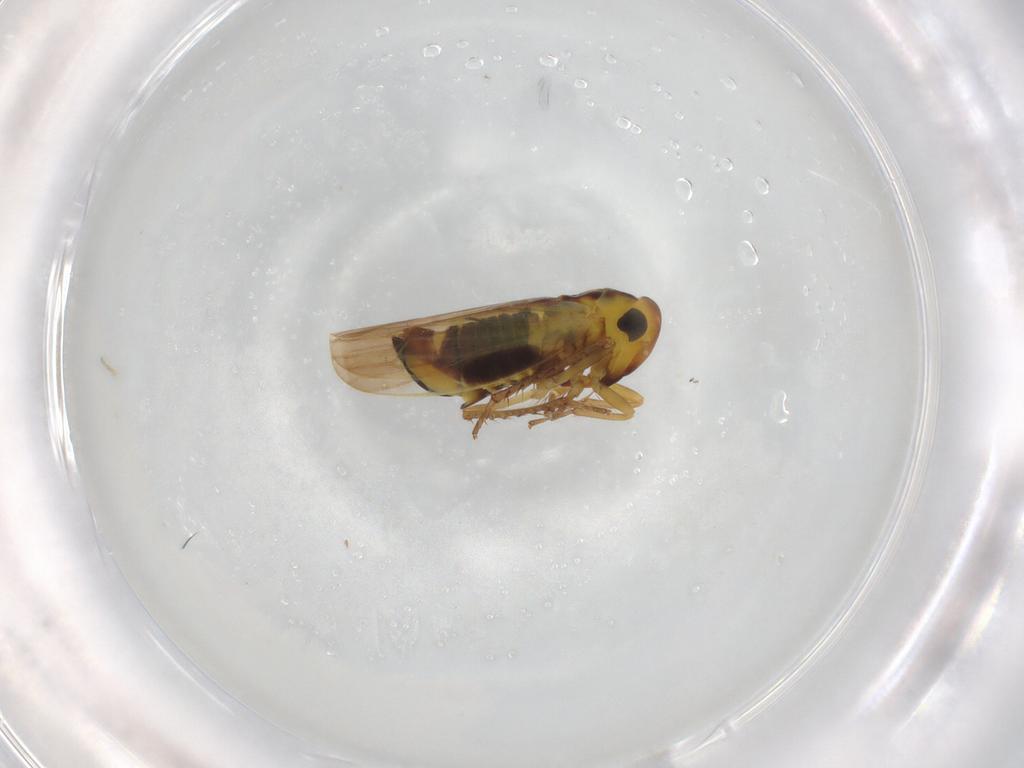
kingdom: Animalia
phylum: Arthropoda
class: Insecta
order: Hemiptera
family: Cicadellidae
